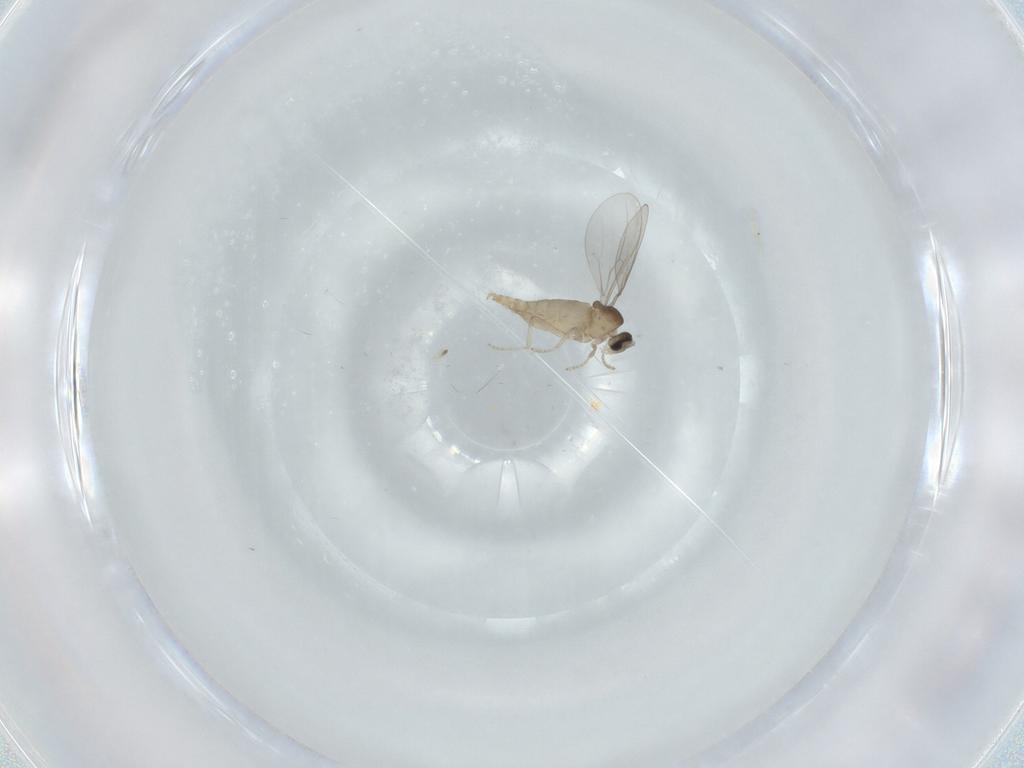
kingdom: Animalia
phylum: Arthropoda
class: Insecta
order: Diptera
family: Cecidomyiidae
